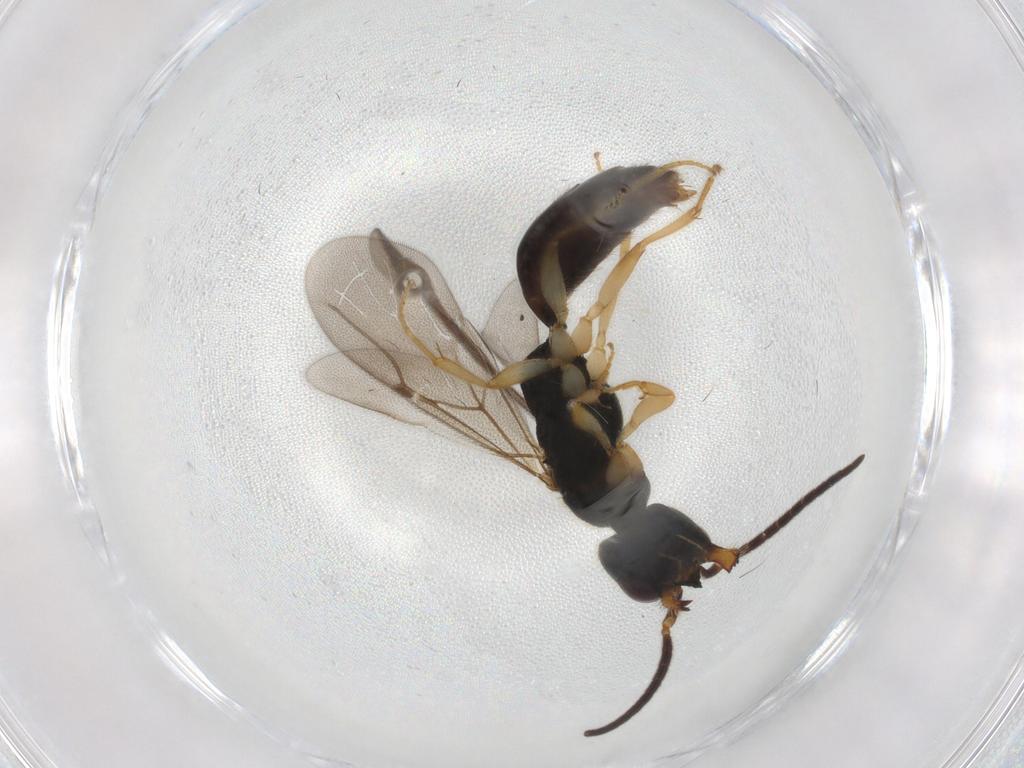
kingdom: Animalia
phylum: Arthropoda
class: Insecta
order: Hymenoptera
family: Bethylidae
